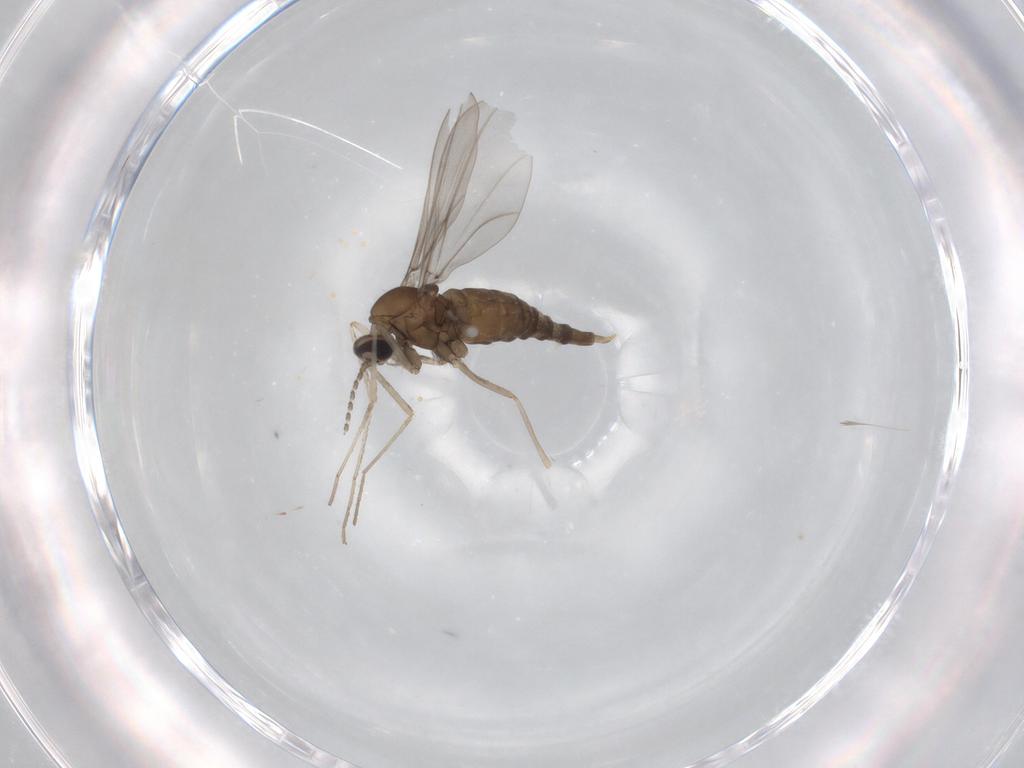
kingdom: Animalia
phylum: Arthropoda
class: Insecta
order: Diptera
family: Cecidomyiidae
